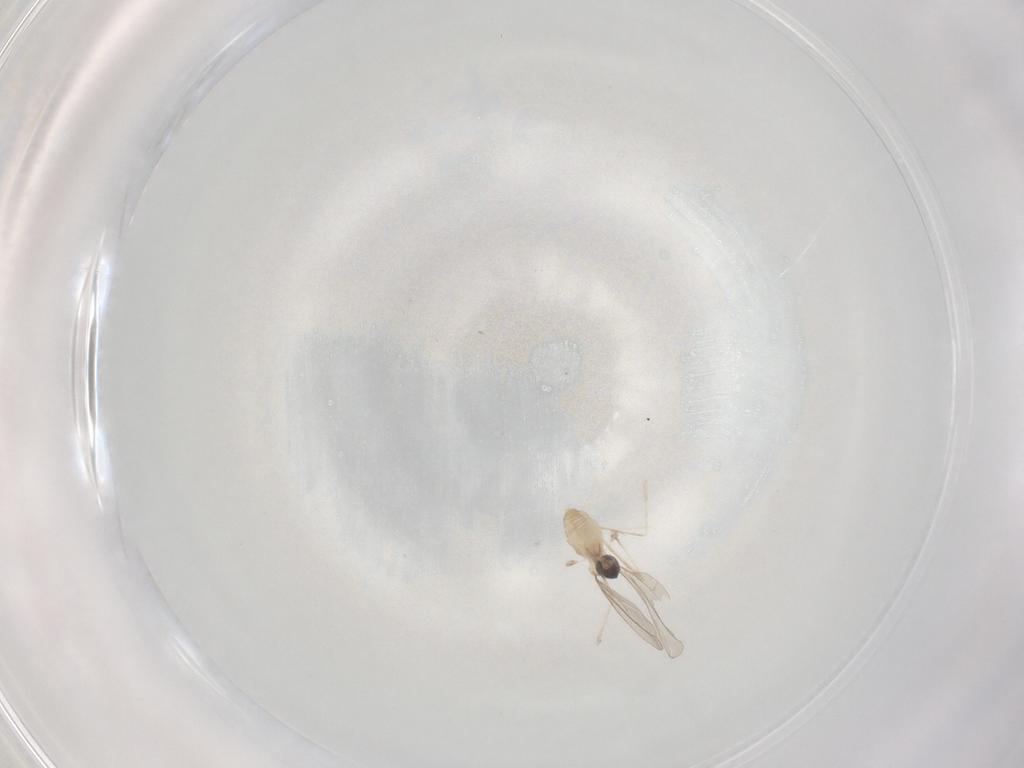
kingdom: Animalia
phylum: Arthropoda
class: Insecta
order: Diptera
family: Cecidomyiidae
